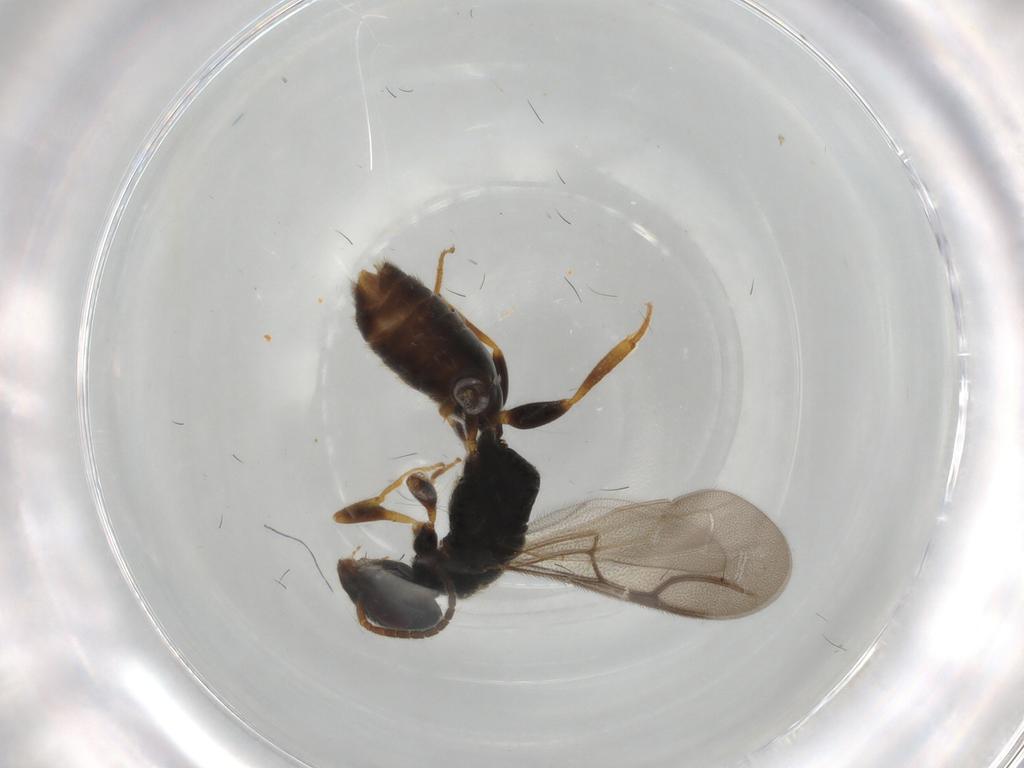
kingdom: Animalia
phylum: Arthropoda
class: Insecta
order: Hymenoptera
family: Bethylidae
